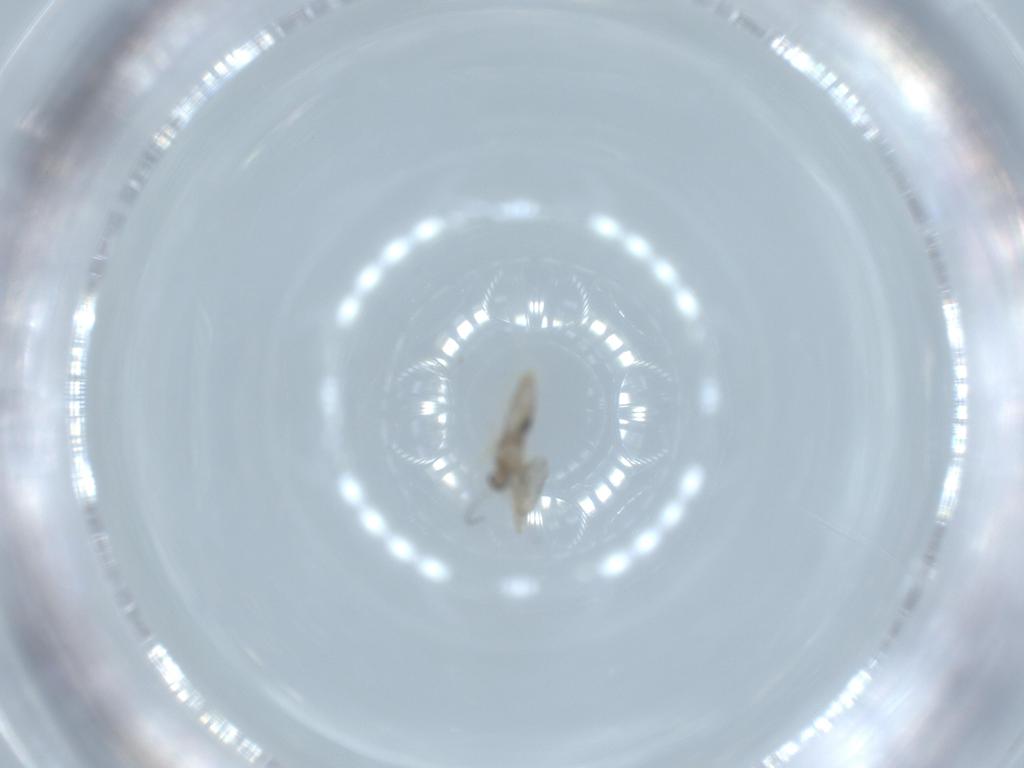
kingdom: Animalia
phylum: Arthropoda
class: Insecta
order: Diptera
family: Cecidomyiidae
